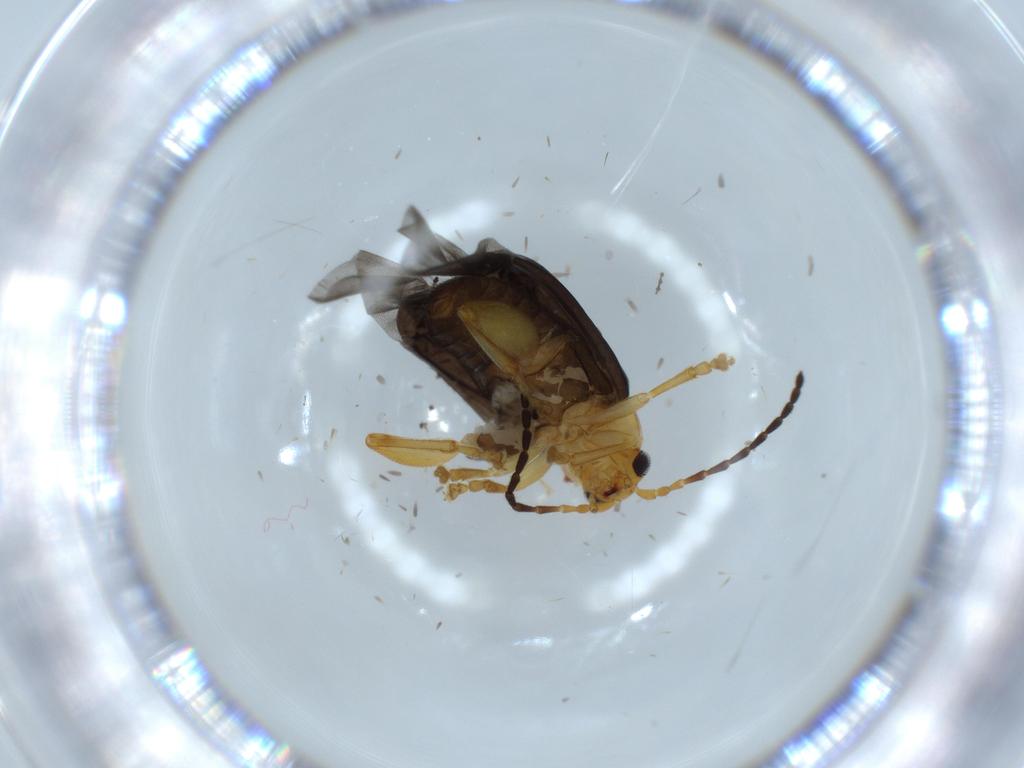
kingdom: Animalia
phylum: Arthropoda
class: Insecta
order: Coleoptera
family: Chrysomelidae
